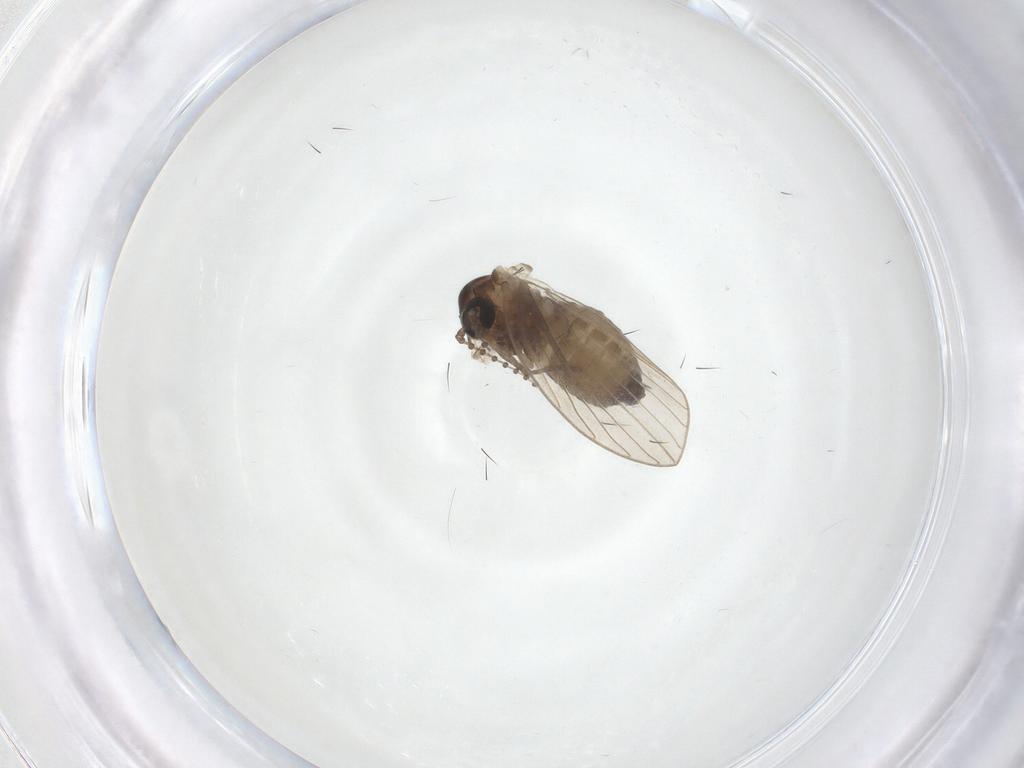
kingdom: Animalia
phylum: Arthropoda
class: Insecta
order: Diptera
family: Psychodidae
